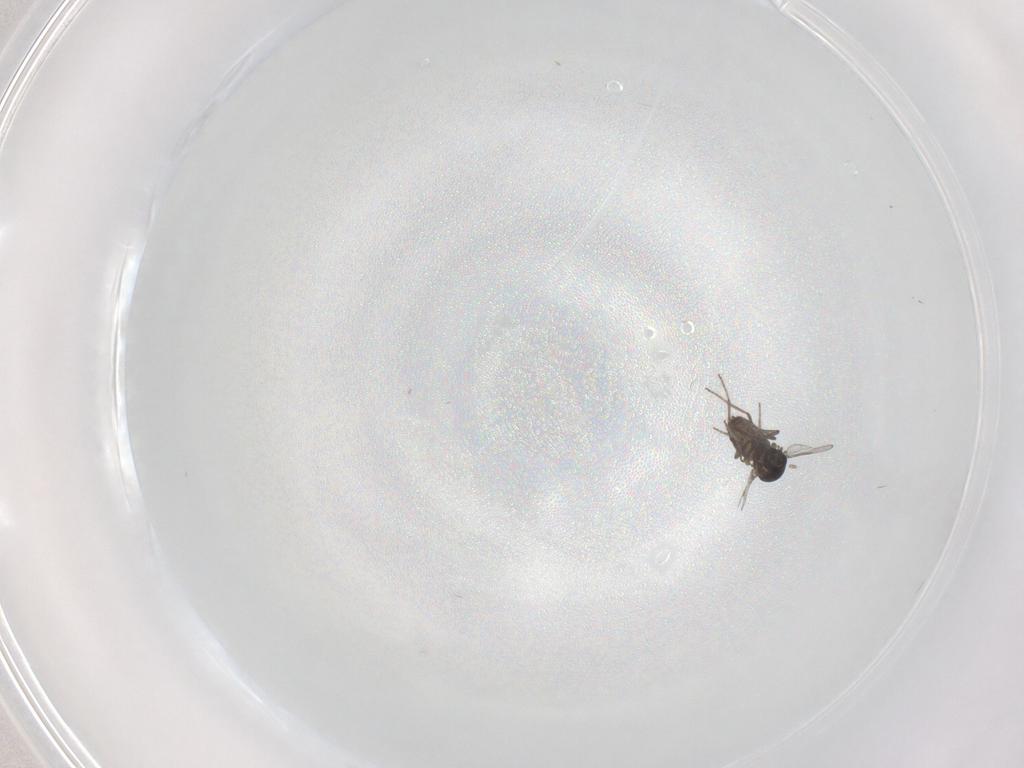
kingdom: Animalia
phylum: Arthropoda
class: Insecta
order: Diptera
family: Ceratopogonidae
